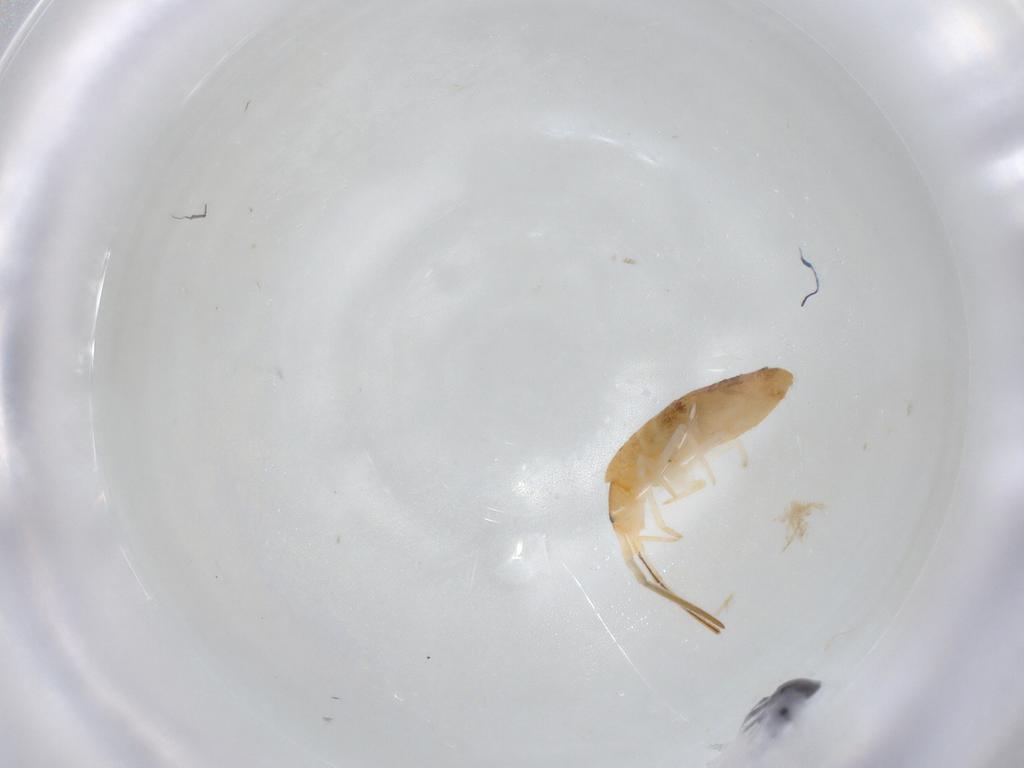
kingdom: Animalia
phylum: Arthropoda
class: Collembola
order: Entomobryomorpha
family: Entomobryidae
